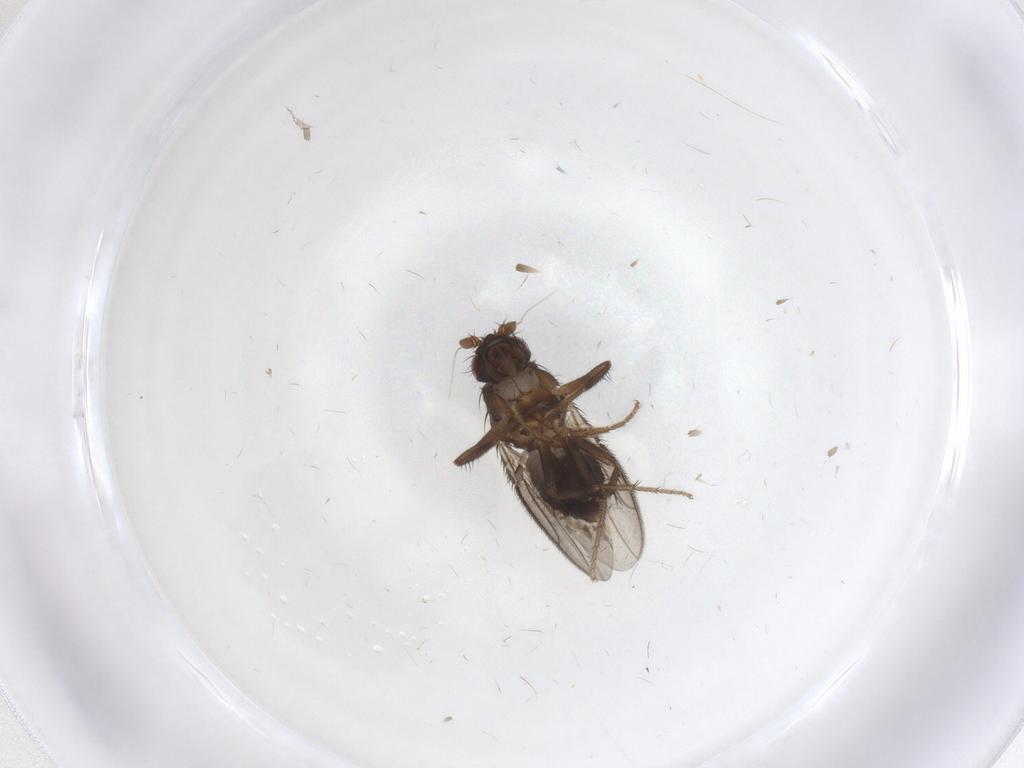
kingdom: Animalia
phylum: Arthropoda
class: Insecta
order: Diptera
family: Sphaeroceridae
